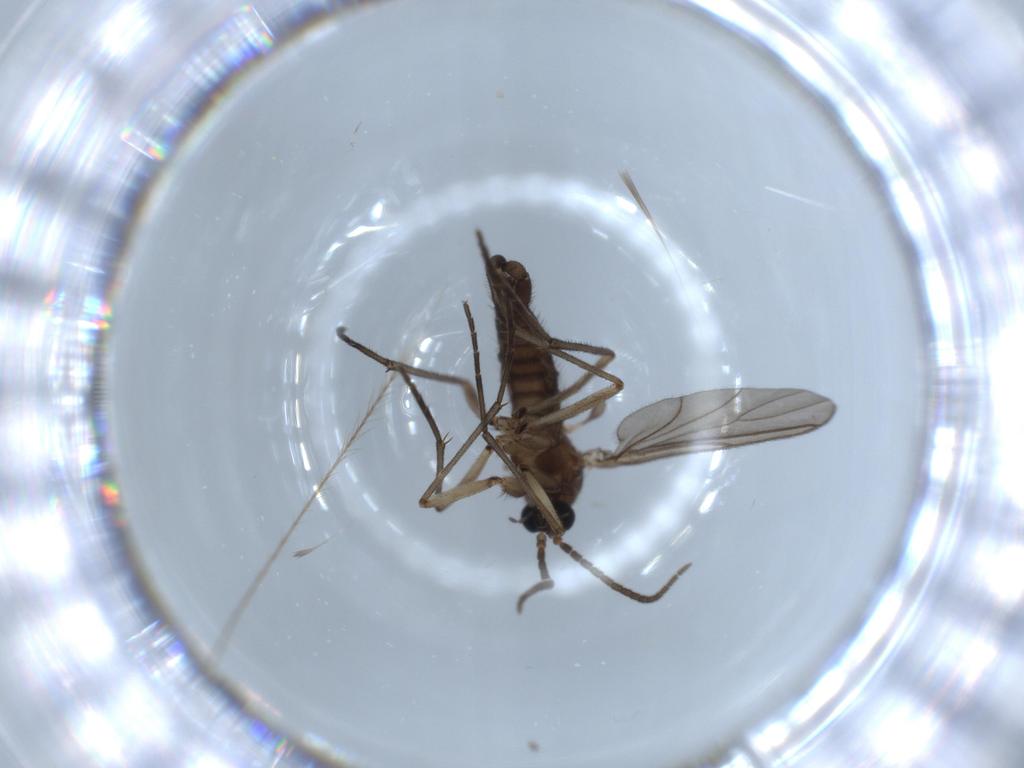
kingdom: Animalia
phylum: Arthropoda
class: Insecta
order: Diptera
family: Sciaridae
